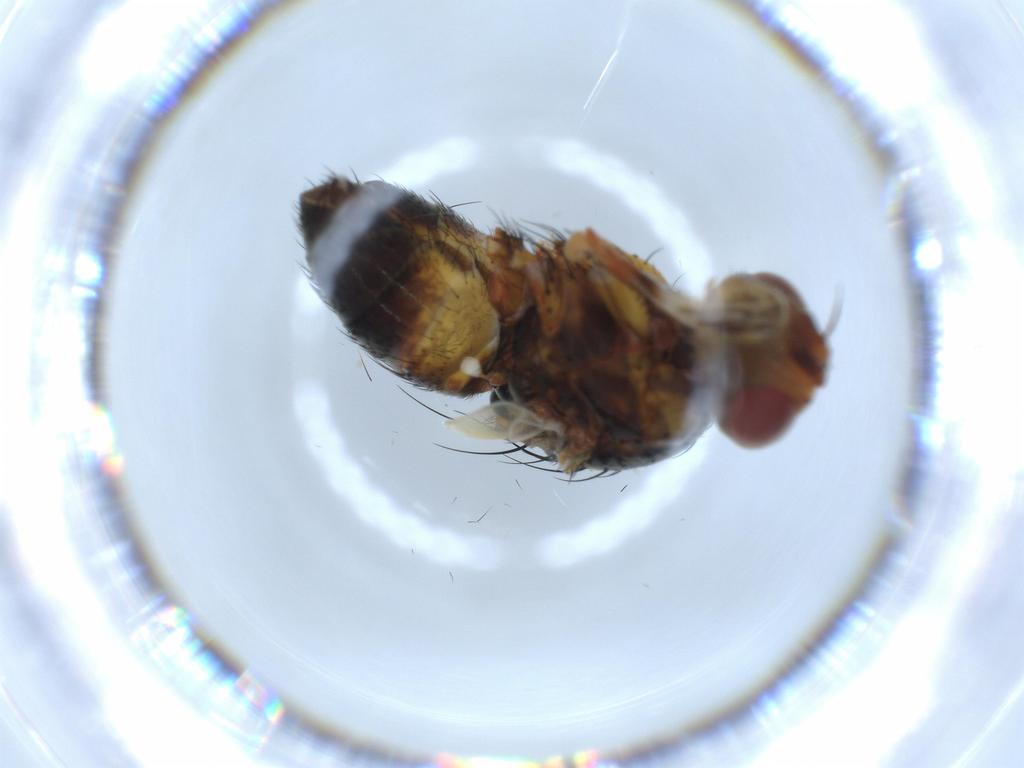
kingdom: Animalia
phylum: Arthropoda
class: Insecta
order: Diptera
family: Tachinidae
